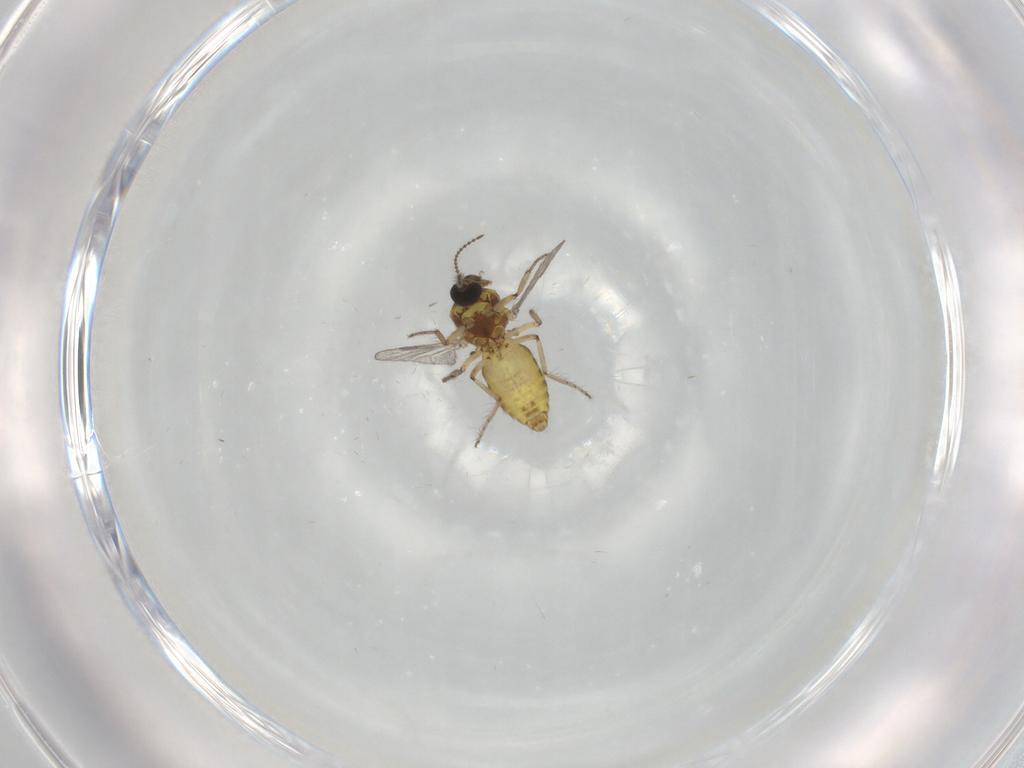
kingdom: Animalia
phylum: Arthropoda
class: Insecta
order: Diptera
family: Ceratopogonidae
